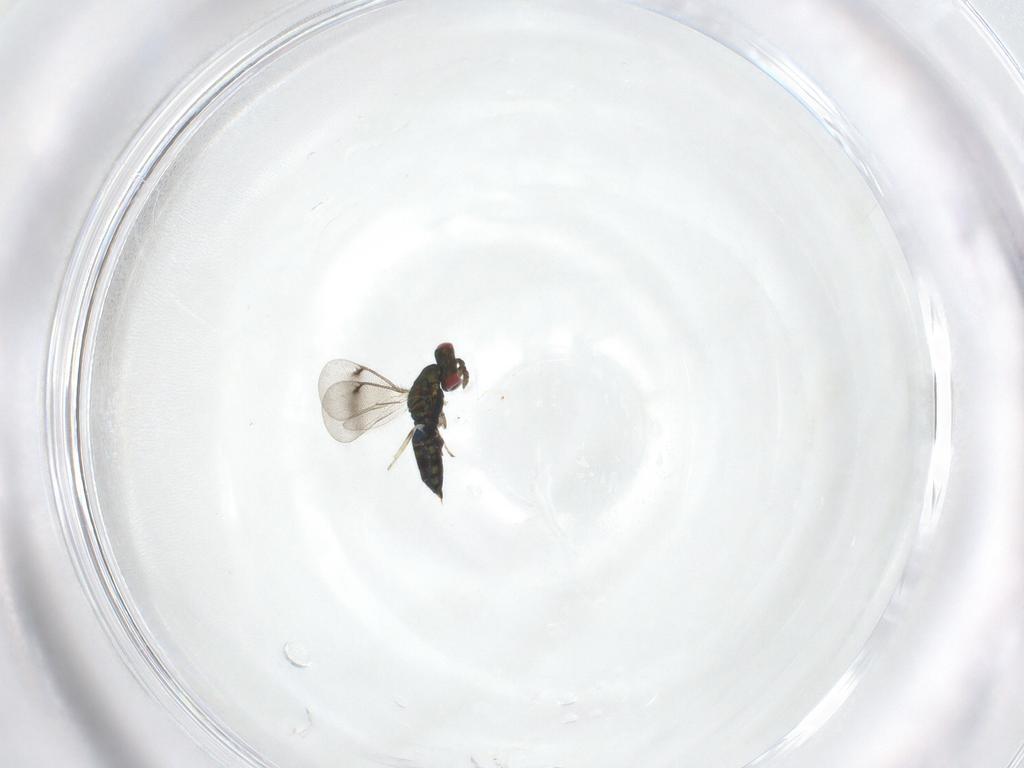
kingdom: Animalia
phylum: Arthropoda
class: Insecta
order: Hymenoptera
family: Eulophidae
